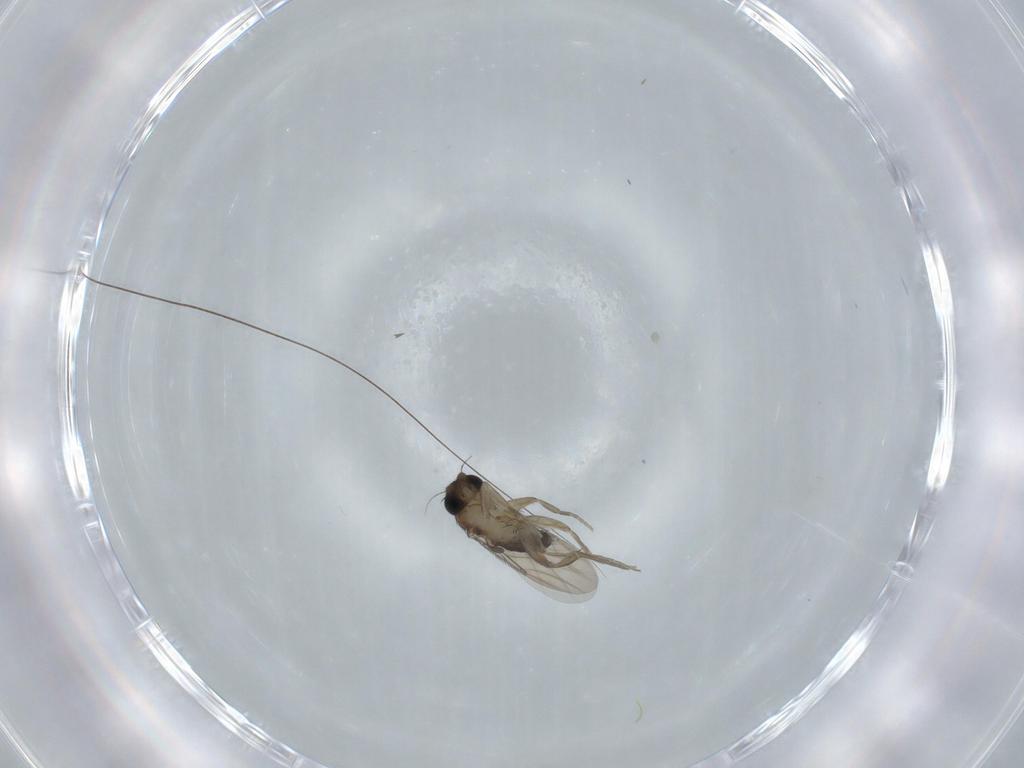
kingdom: Animalia
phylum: Arthropoda
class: Insecta
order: Diptera
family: Phoridae
